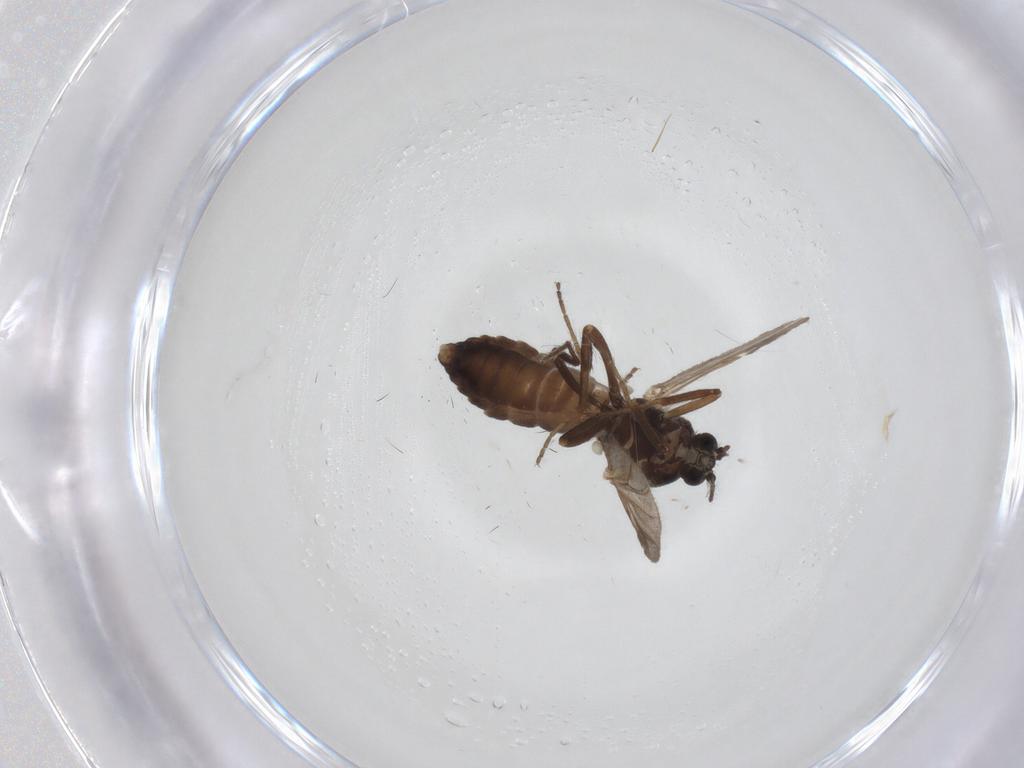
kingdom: Animalia
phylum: Arthropoda
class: Insecta
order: Diptera
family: Ceratopogonidae
